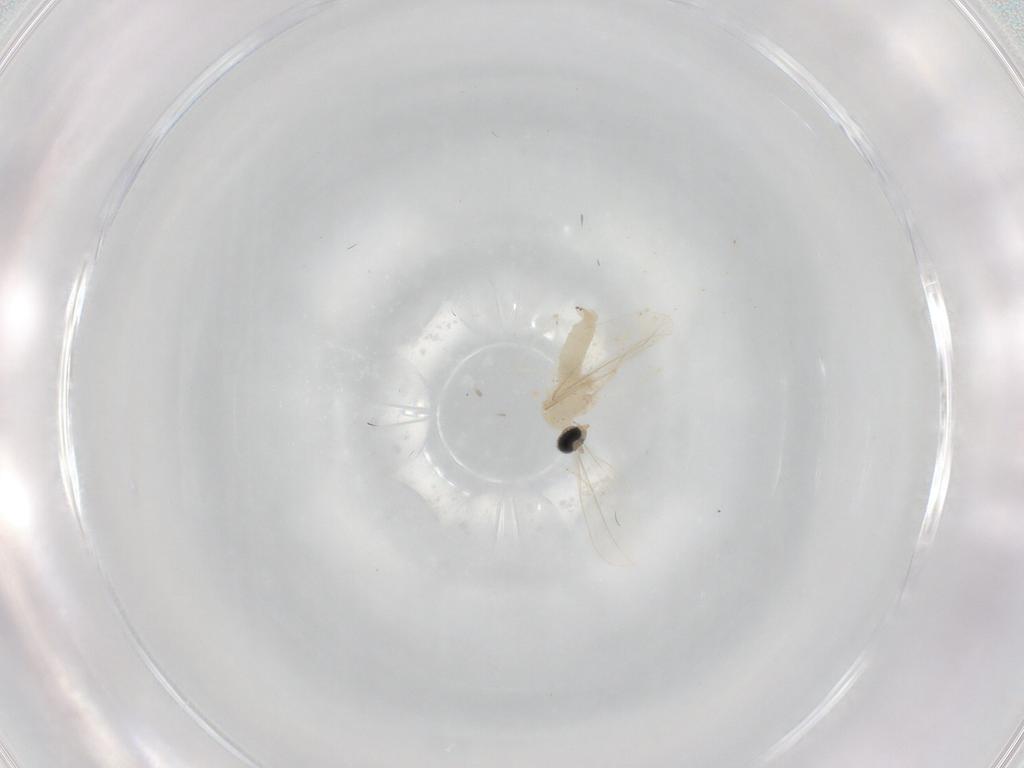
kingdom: Animalia
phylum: Arthropoda
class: Insecta
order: Diptera
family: Cecidomyiidae
